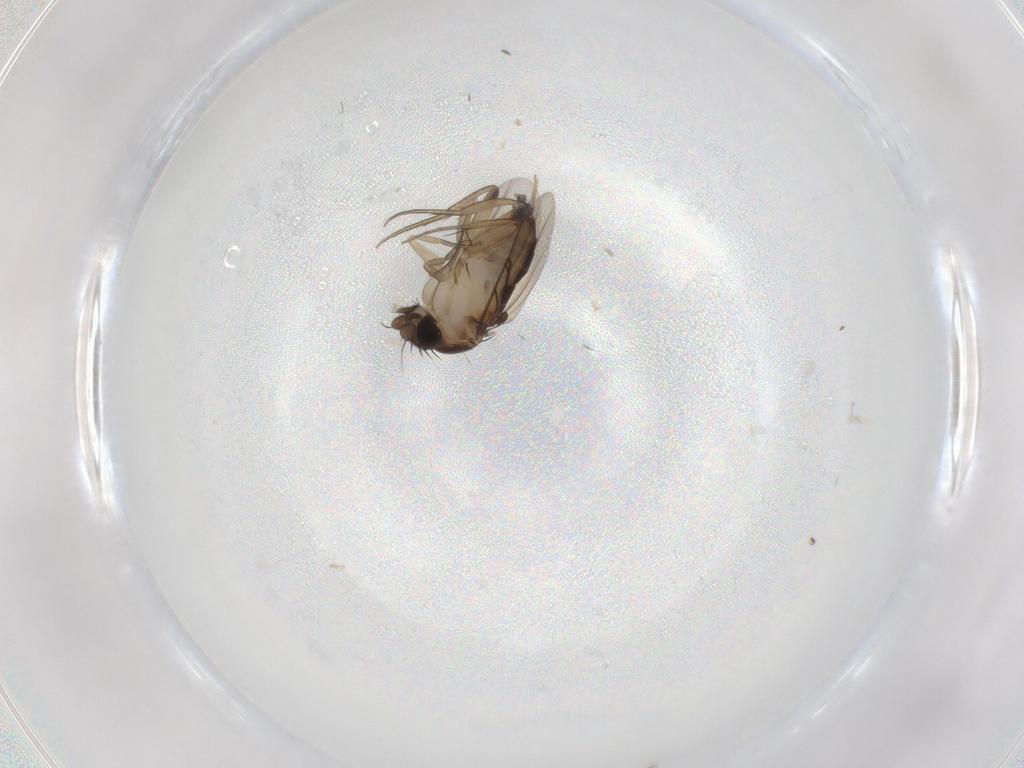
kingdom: Animalia
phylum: Arthropoda
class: Insecta
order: Diptera
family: Phoridae
